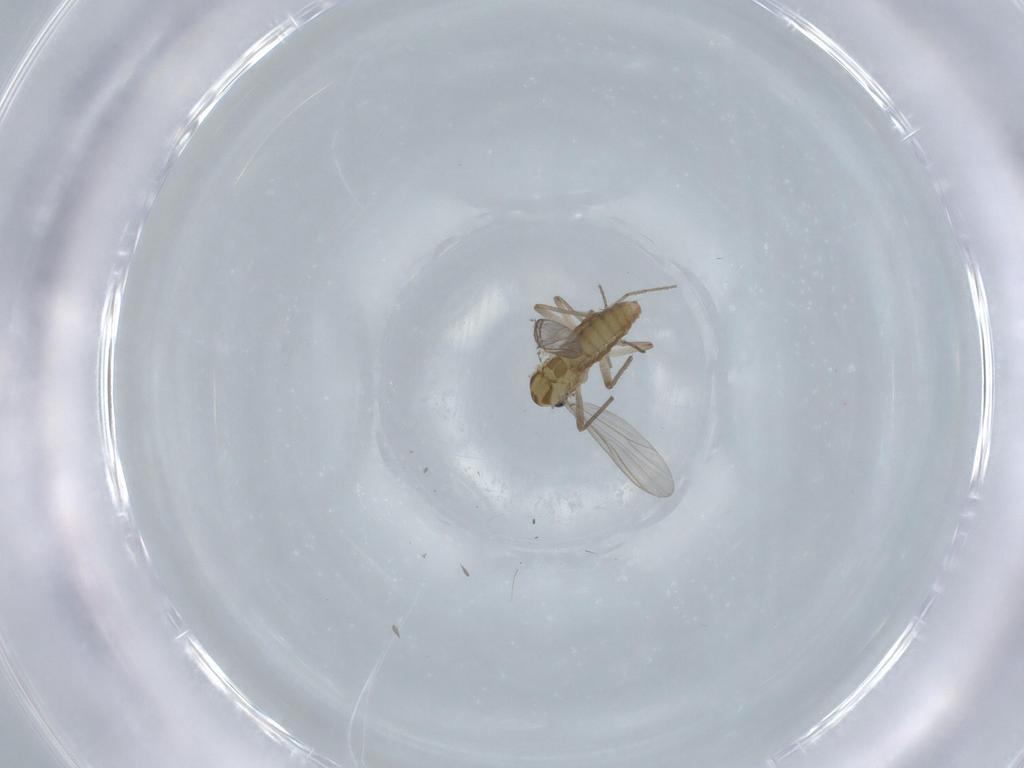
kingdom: Animalia
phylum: Arthropoda
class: Insecta
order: Diptera
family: Chironomidae
